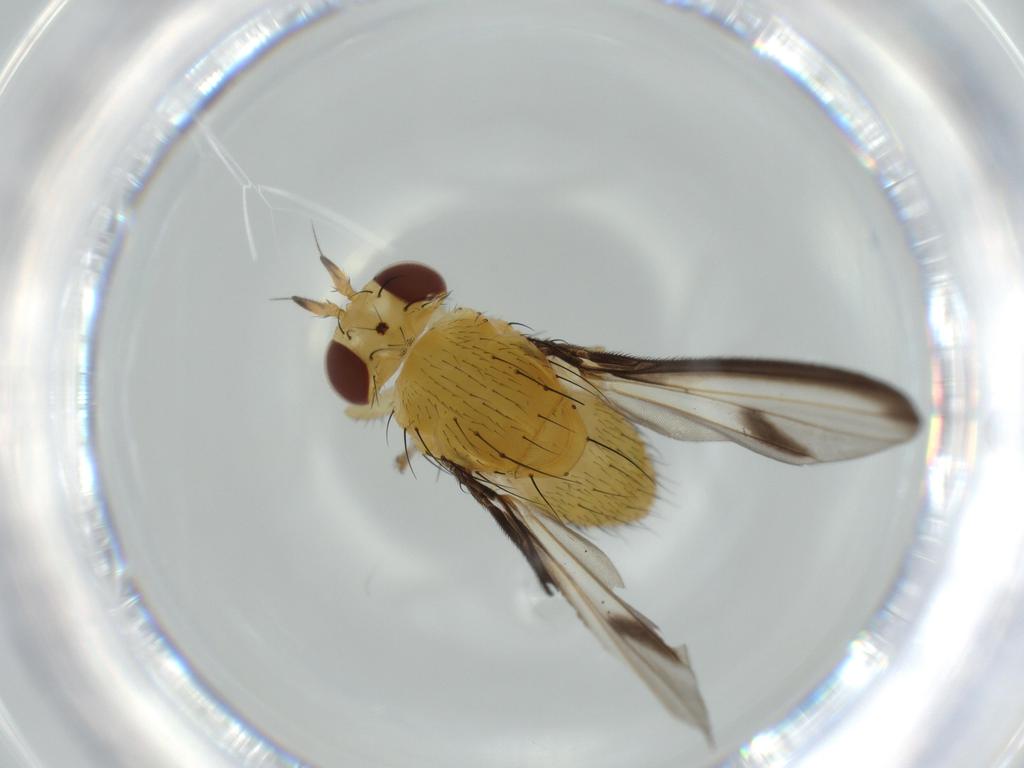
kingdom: Animalia
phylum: Arthropoda
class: Insecta
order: Diptera
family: Lauxaniidae
